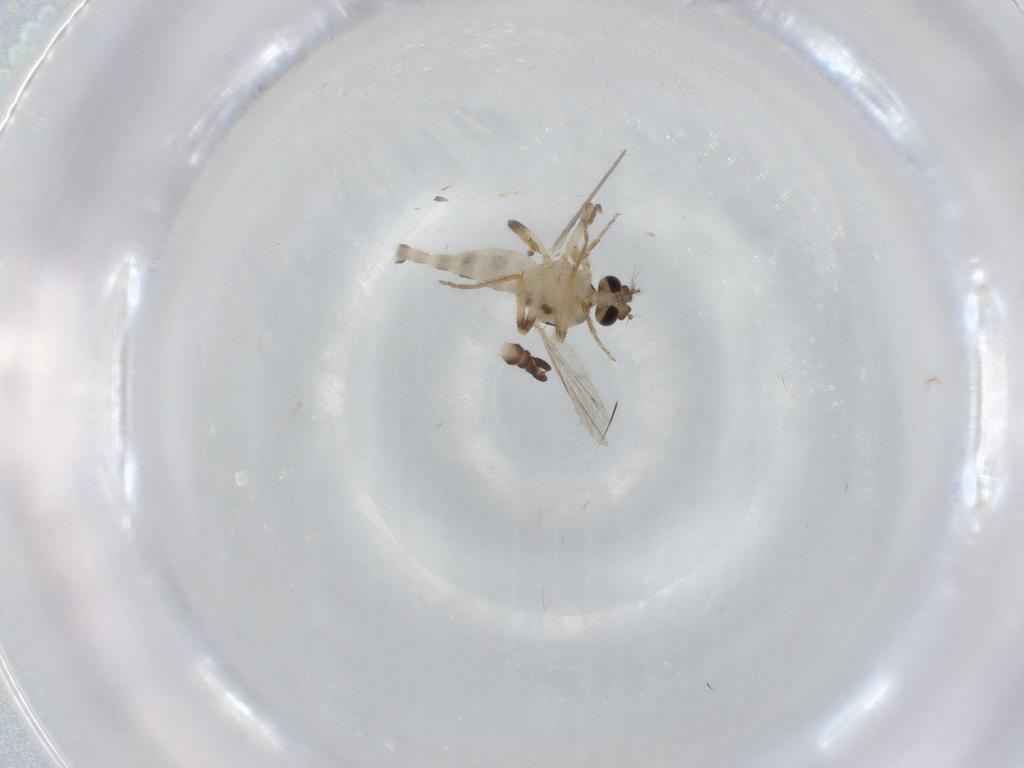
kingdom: Animalia
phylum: Arthropoda
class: Insecta
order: Diptera
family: Ceratopogonidae
